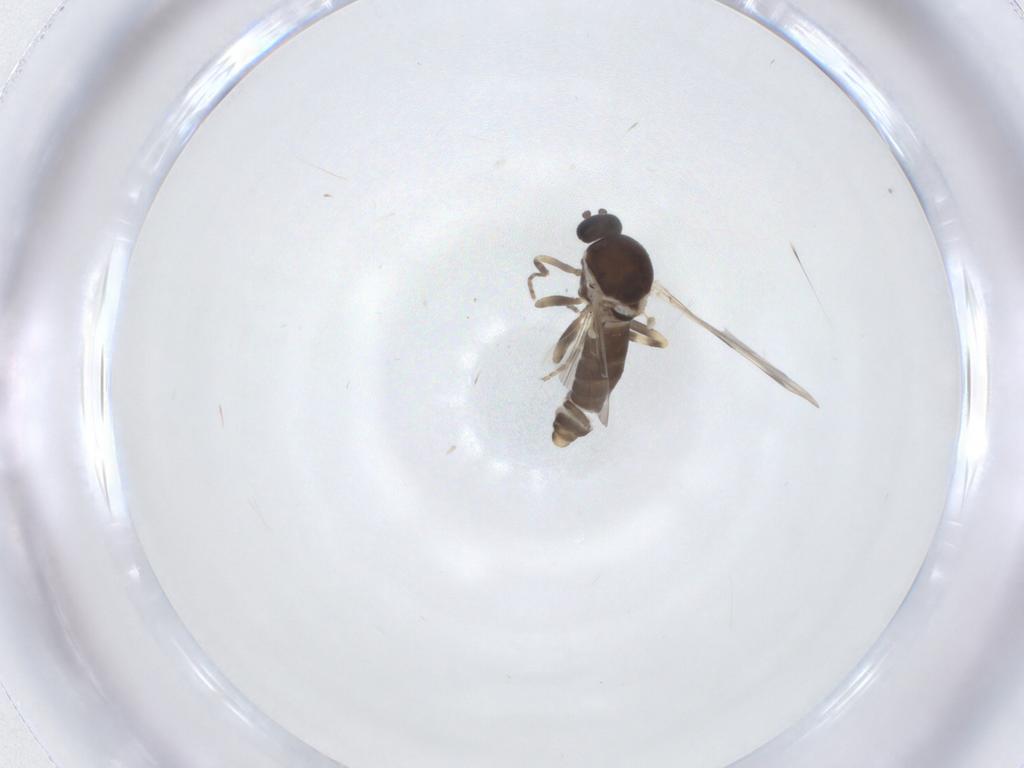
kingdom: Animalia
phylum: Arthropoda
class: Insecta
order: Diptera
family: Ceratopogonidae
